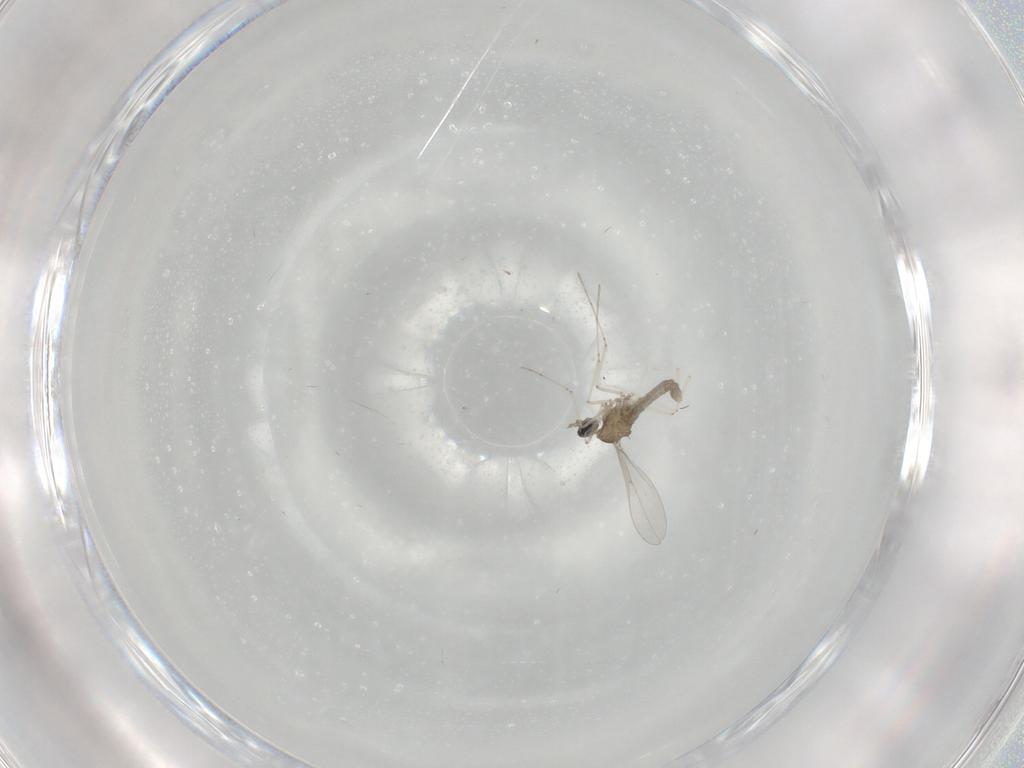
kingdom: Animalia
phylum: Arthropoda
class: Insecta
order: Diptera
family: Cecidomyiidae
